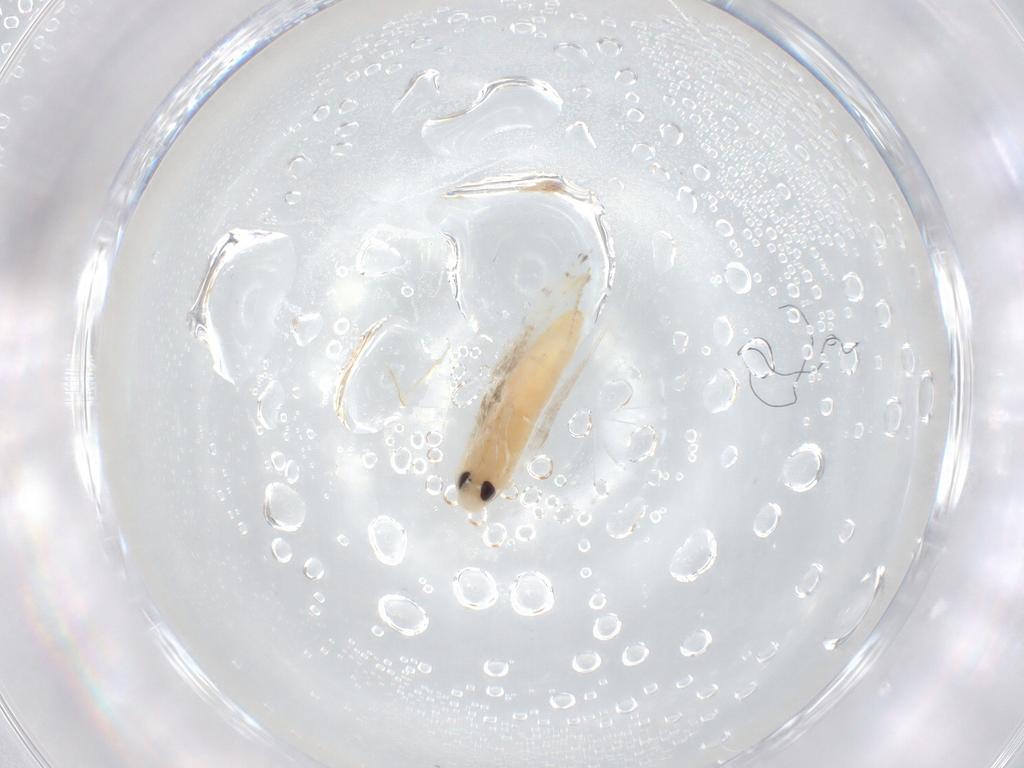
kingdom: Animalia
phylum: Arthropoda
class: Insecta
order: Lepidoptera
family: Gracillariidae
